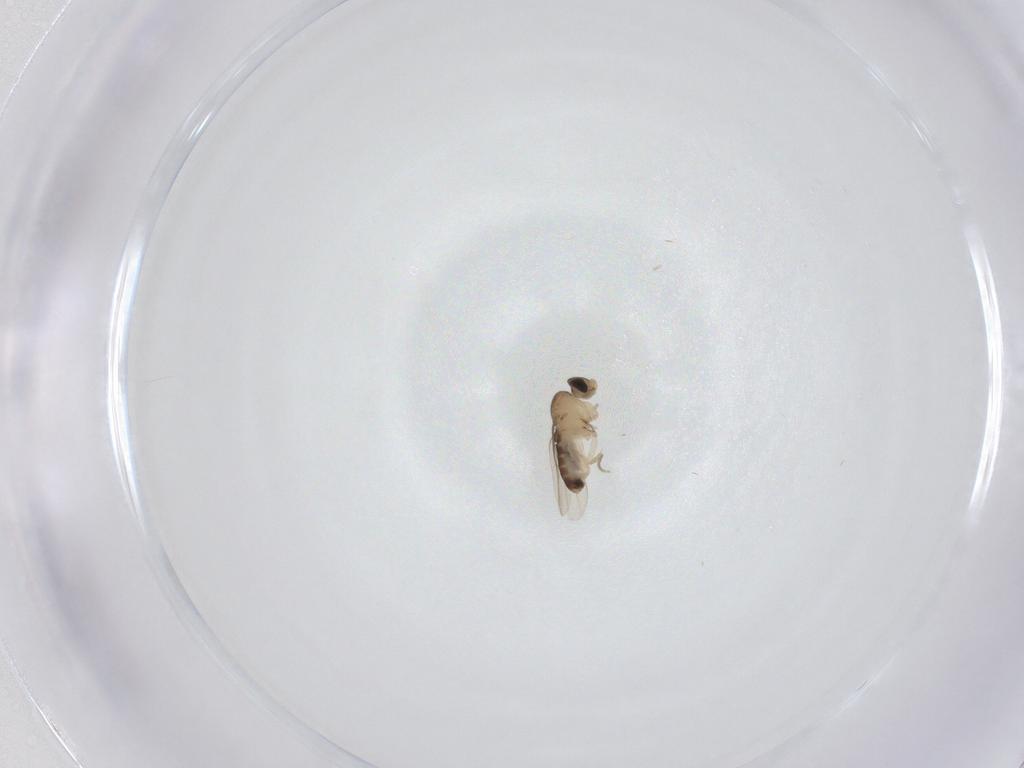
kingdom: Animalia
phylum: Arthropoda
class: Insecta
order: Diptera
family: Phoridae
